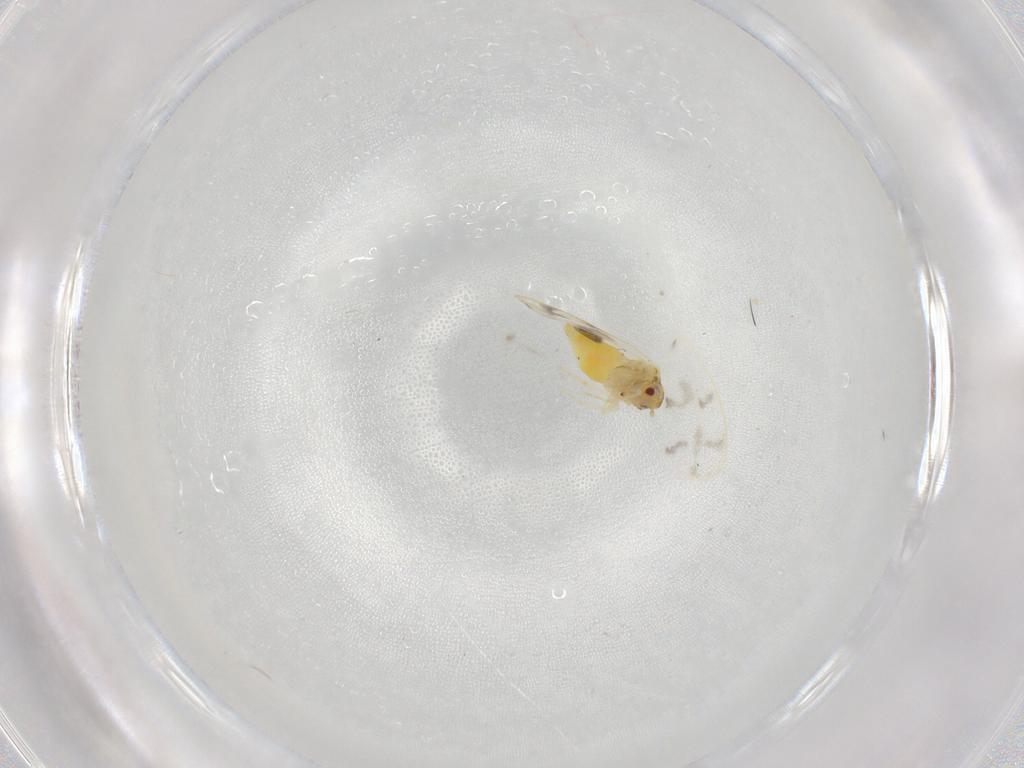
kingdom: Animalia
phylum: Arthropoda
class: Insecta
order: Hemiptera
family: Aleyrodidae
